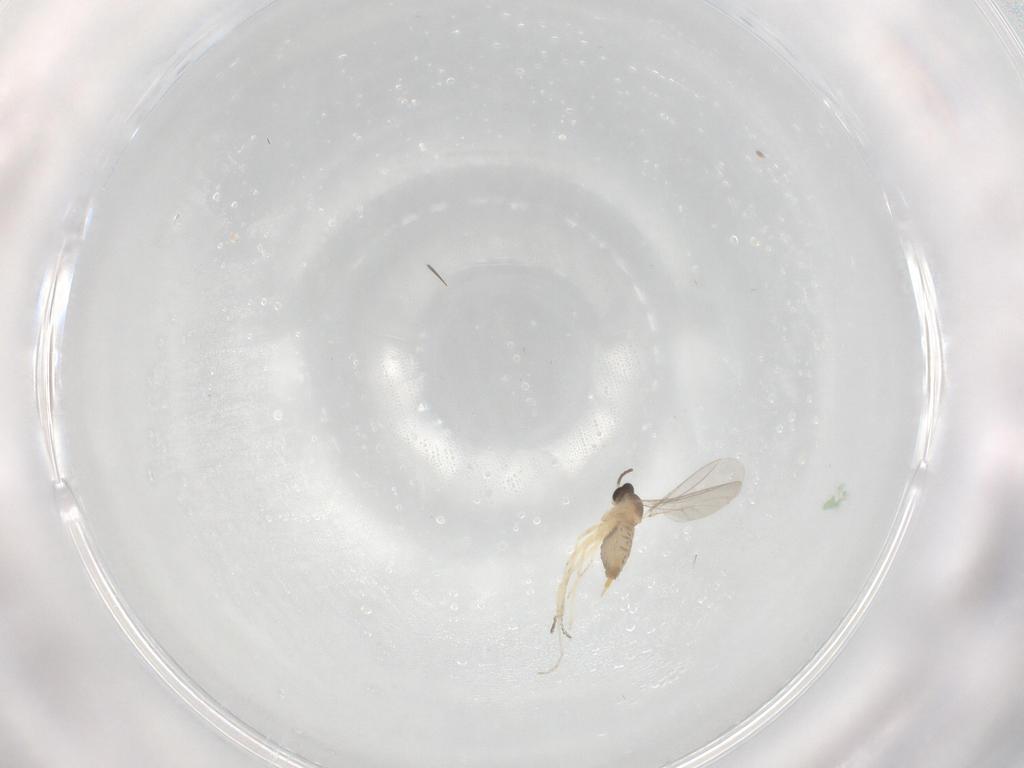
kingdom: Animalia
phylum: Arthropoda
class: Insecta
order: Diptera
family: Cecidomyiidae
